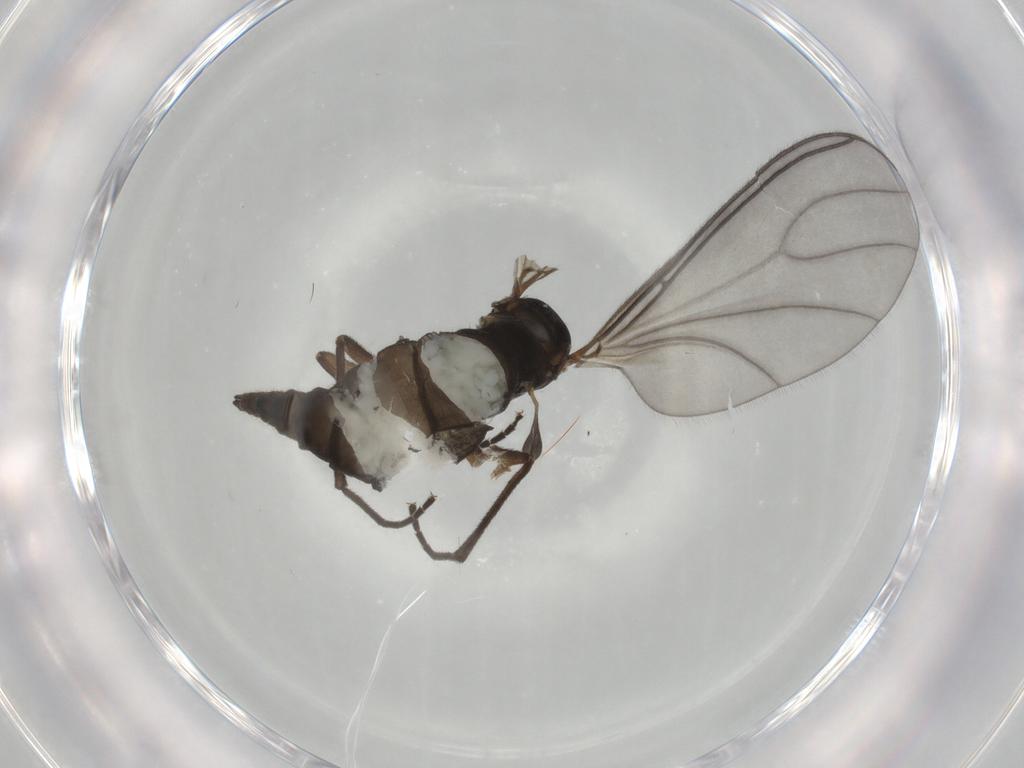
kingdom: Animalia
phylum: Arthropoda
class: Insecta
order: Diptera
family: Sciaridae
